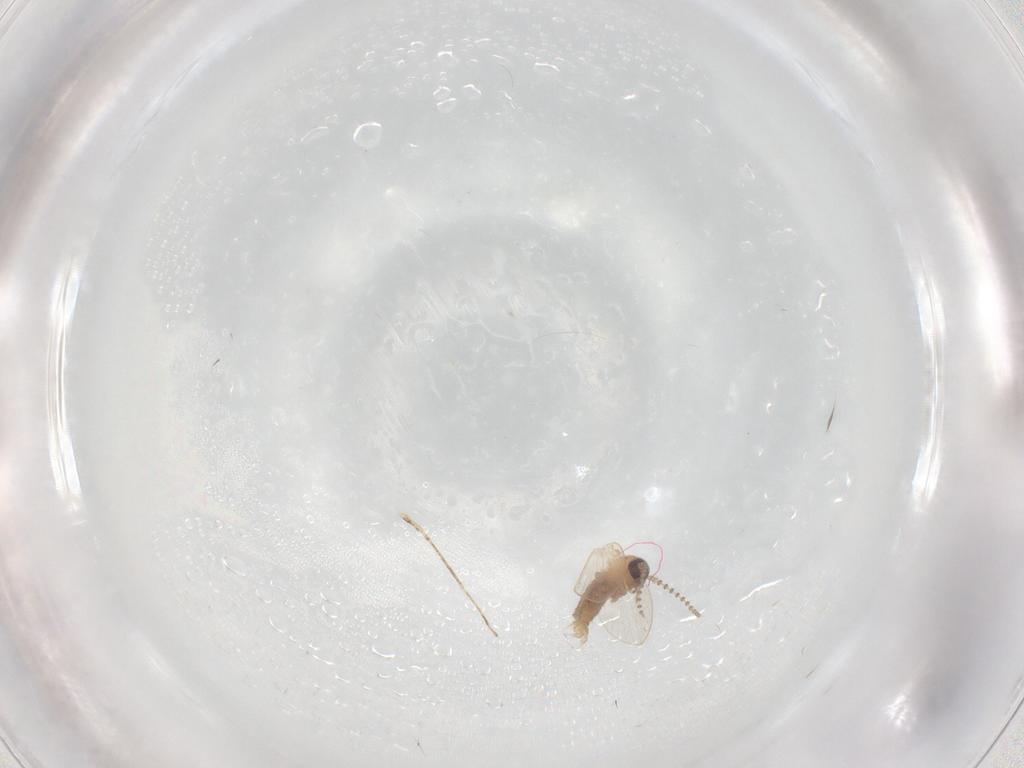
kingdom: Animalia
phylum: Arthropoda
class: Insecta
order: Diptera
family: Psychodidae
